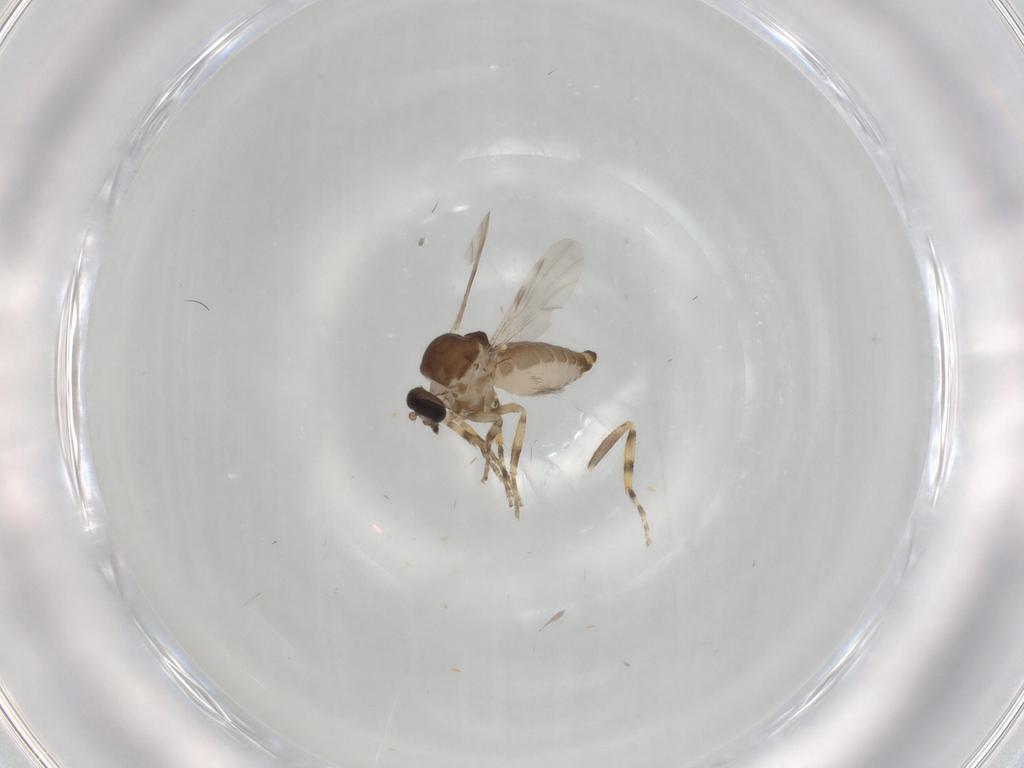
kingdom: Animalia
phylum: Arthropoda
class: Insecta
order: Diptera
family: Ceratopogonidae
